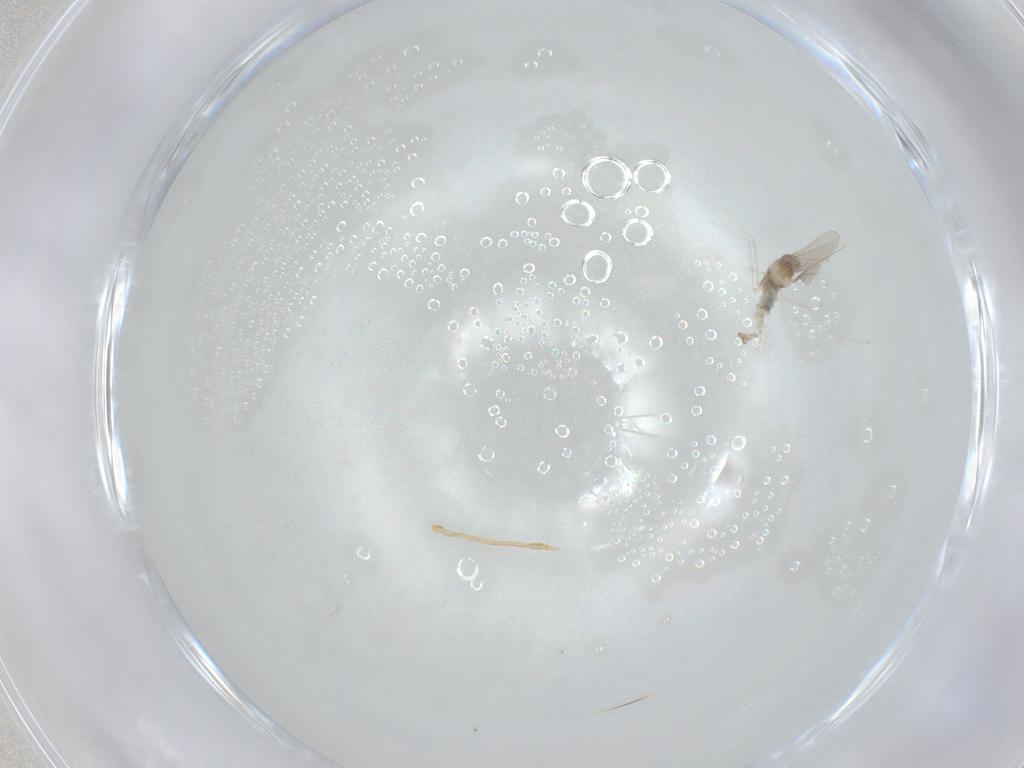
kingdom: Animalia
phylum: Arthropoda
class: Insecta
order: Diptera
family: Cecidomyiidae
